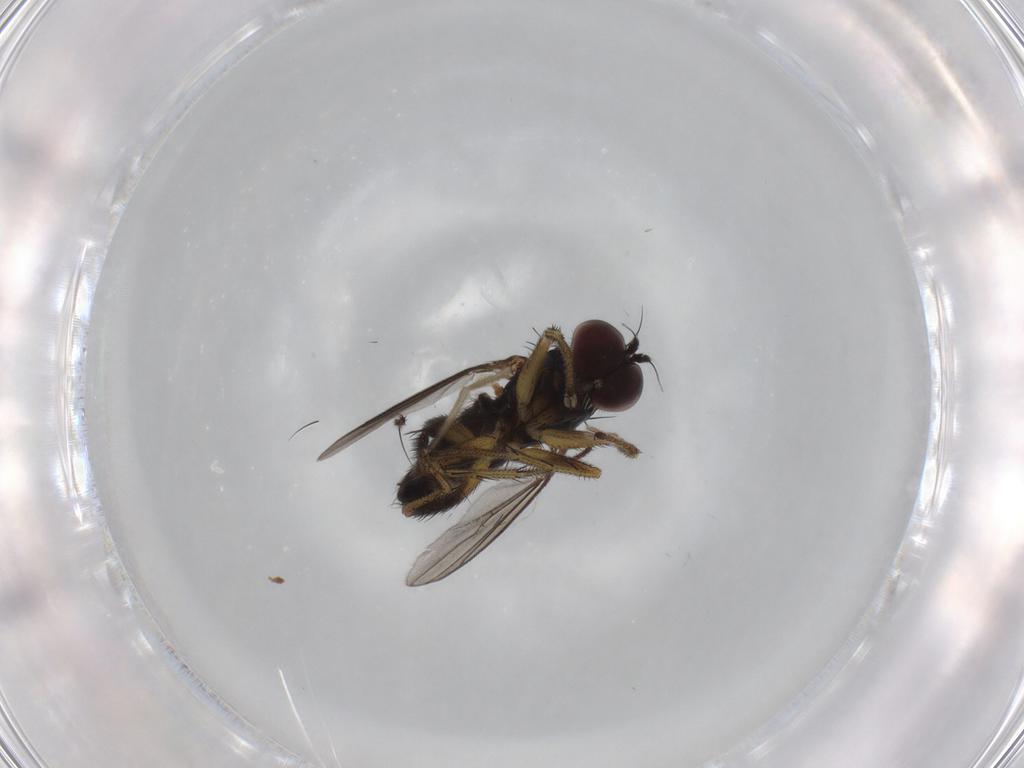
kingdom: Animalia
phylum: Arthropoda
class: Insecta
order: Diptera
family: Dolichopodidae
